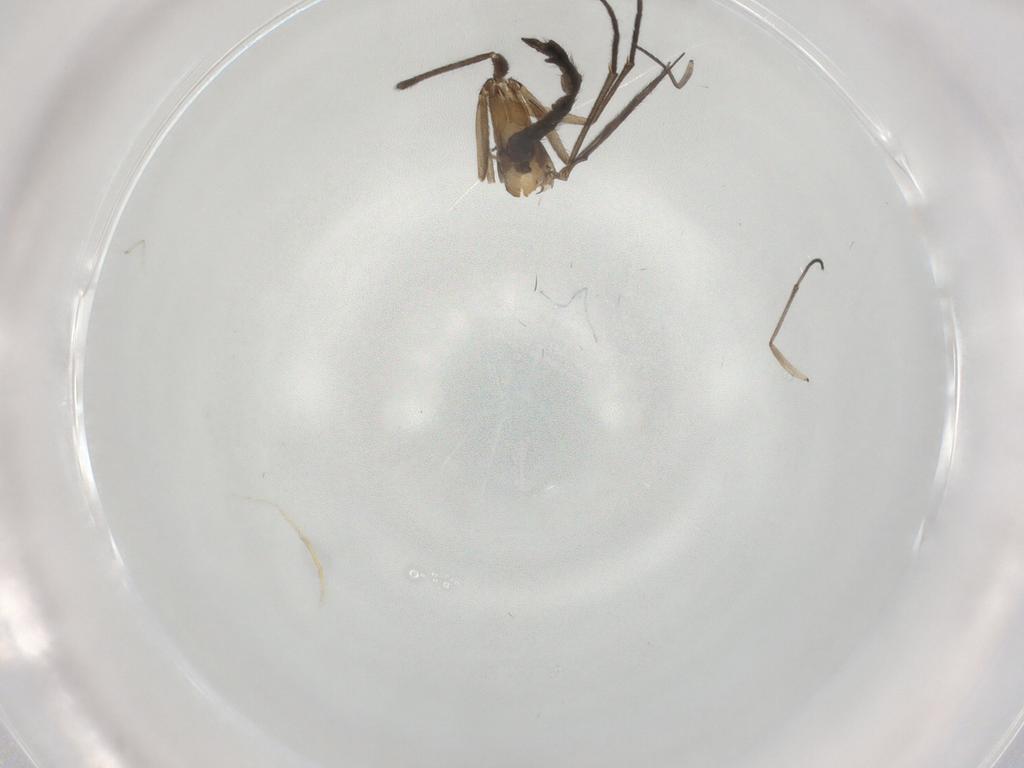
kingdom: Animalia
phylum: Arthropoda
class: Insecta
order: Diptera
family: Sciaridae
